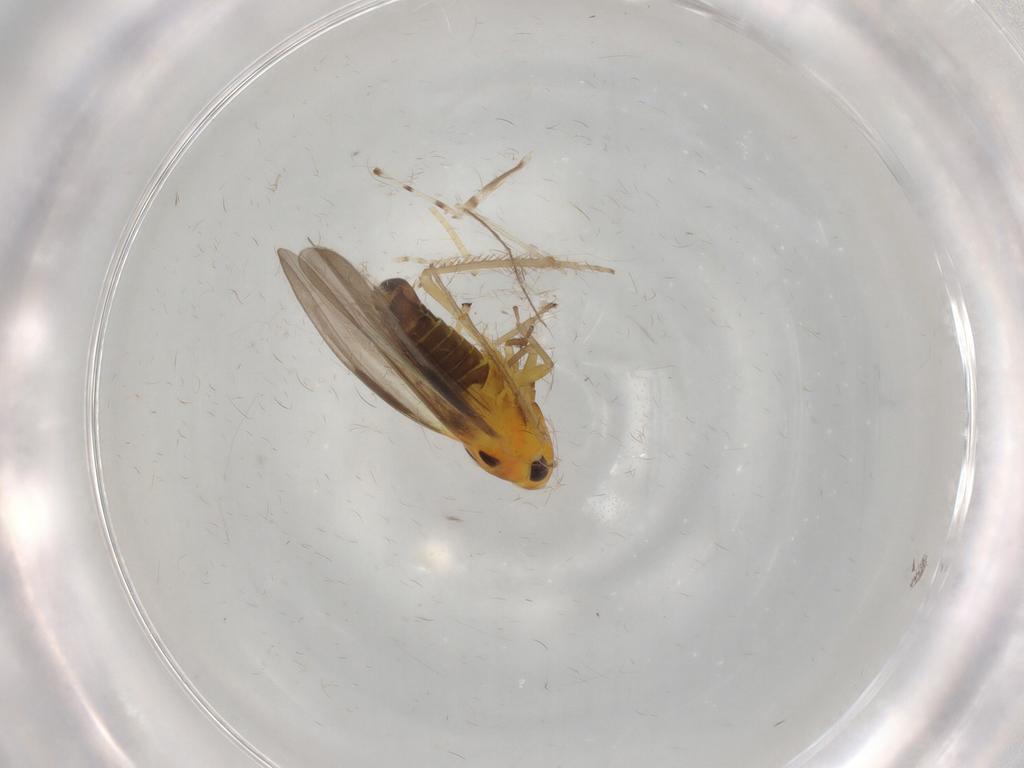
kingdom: Animalia
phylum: Arthropoda
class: Insecta
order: Hemiptera
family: Cicadellidae
